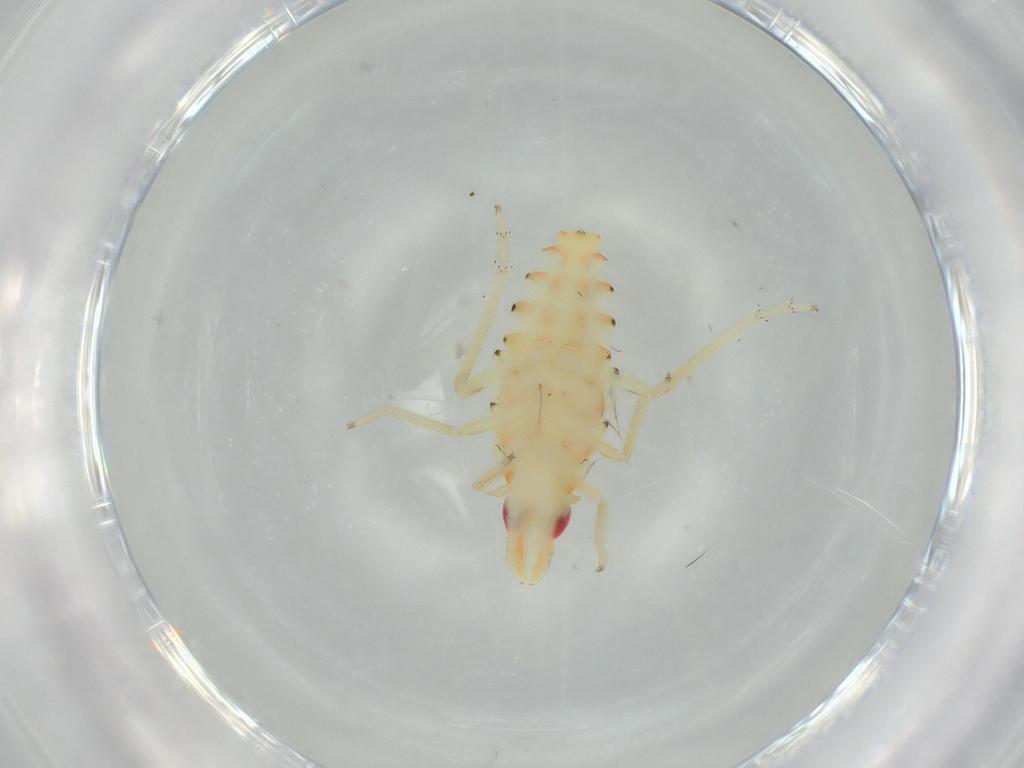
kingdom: Animalia
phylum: Arthropoda
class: Insecta
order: Hemiptera
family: Tropiduchidae
